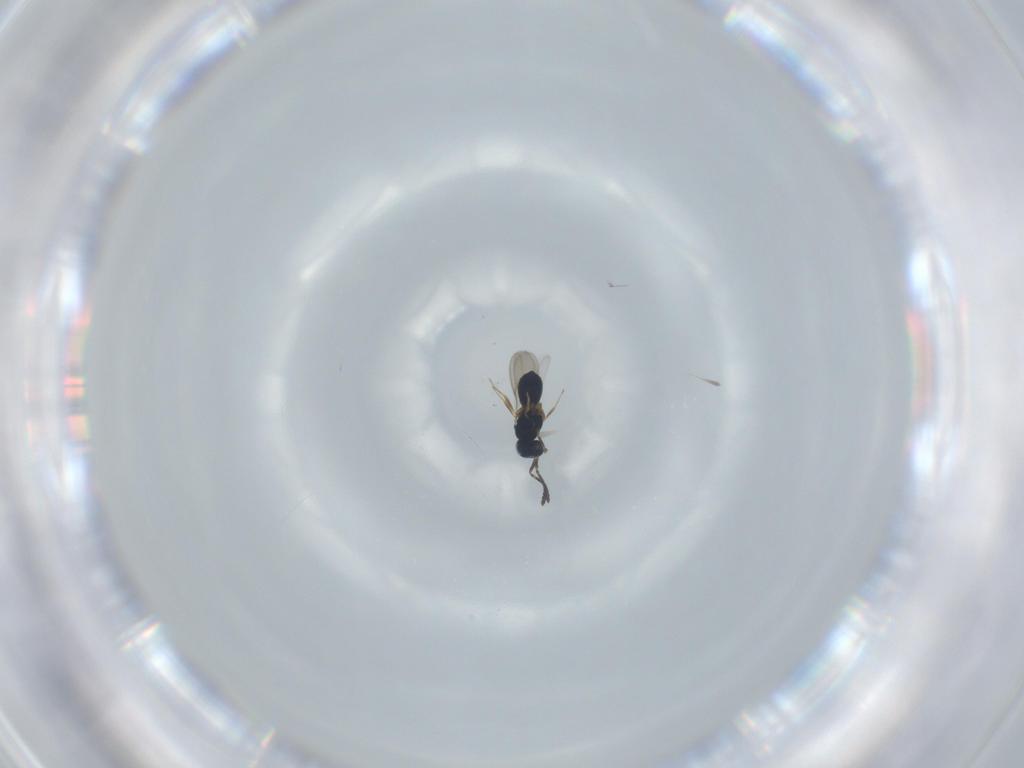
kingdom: Animalia
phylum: Arthropoda
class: Insecta
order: Hymenoptera
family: Scelionidae
